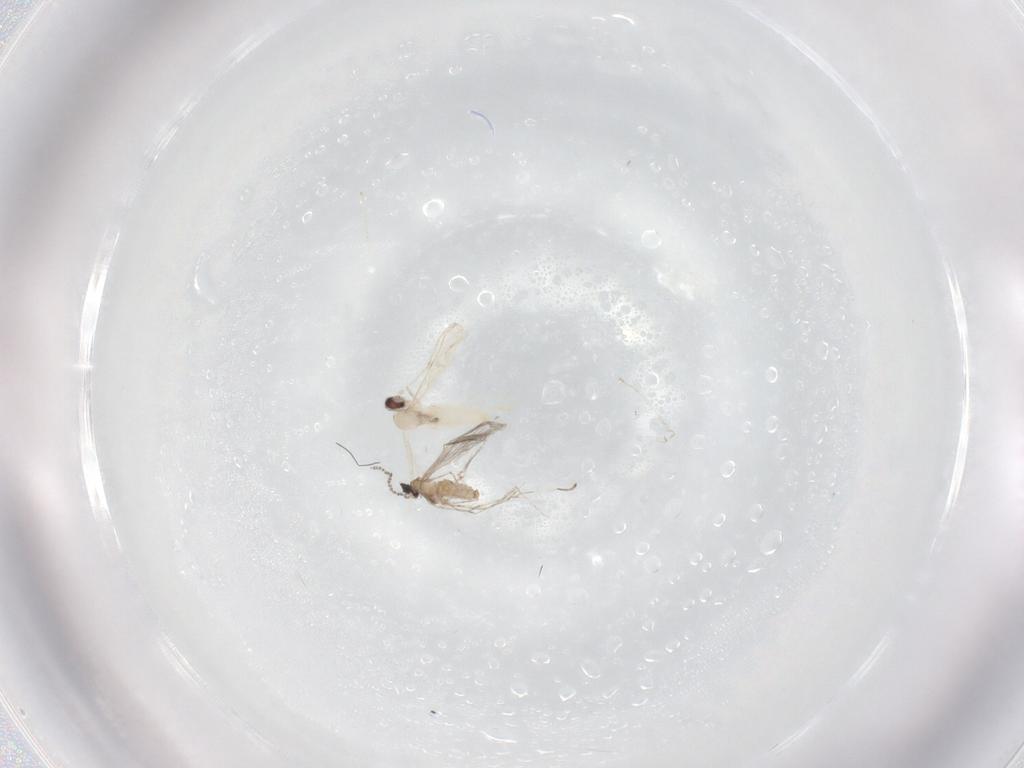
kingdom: Animalia
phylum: Arthropoda
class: Insecta
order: Diptera
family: Cecidomyiidae
